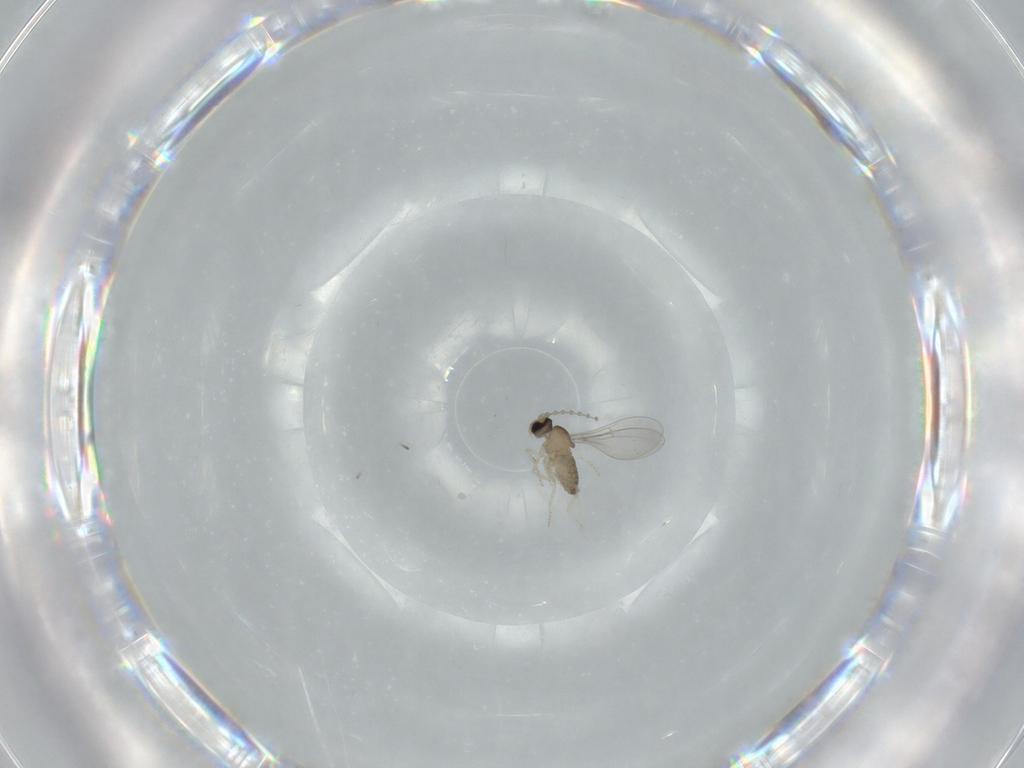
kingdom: Animalia
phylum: Arthropoda
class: Insecta
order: Diptera
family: Cecidomyiidae
